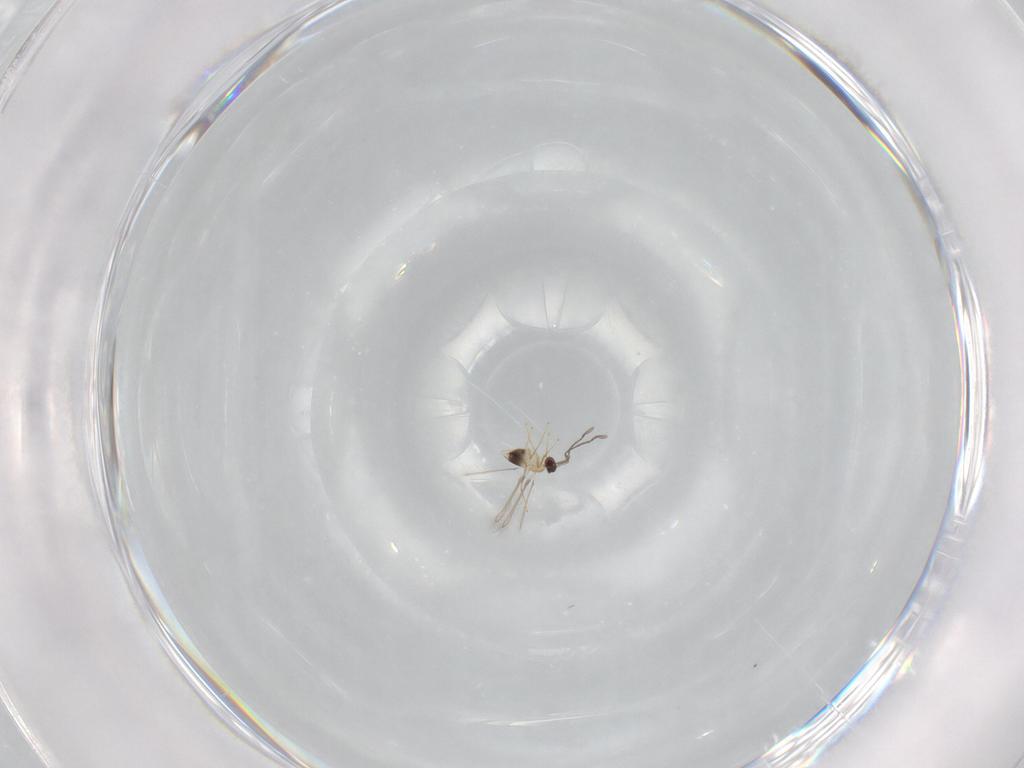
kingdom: Animalia
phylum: Arthropoda
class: Insecta
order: Hymenoptera
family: Mymaridae
